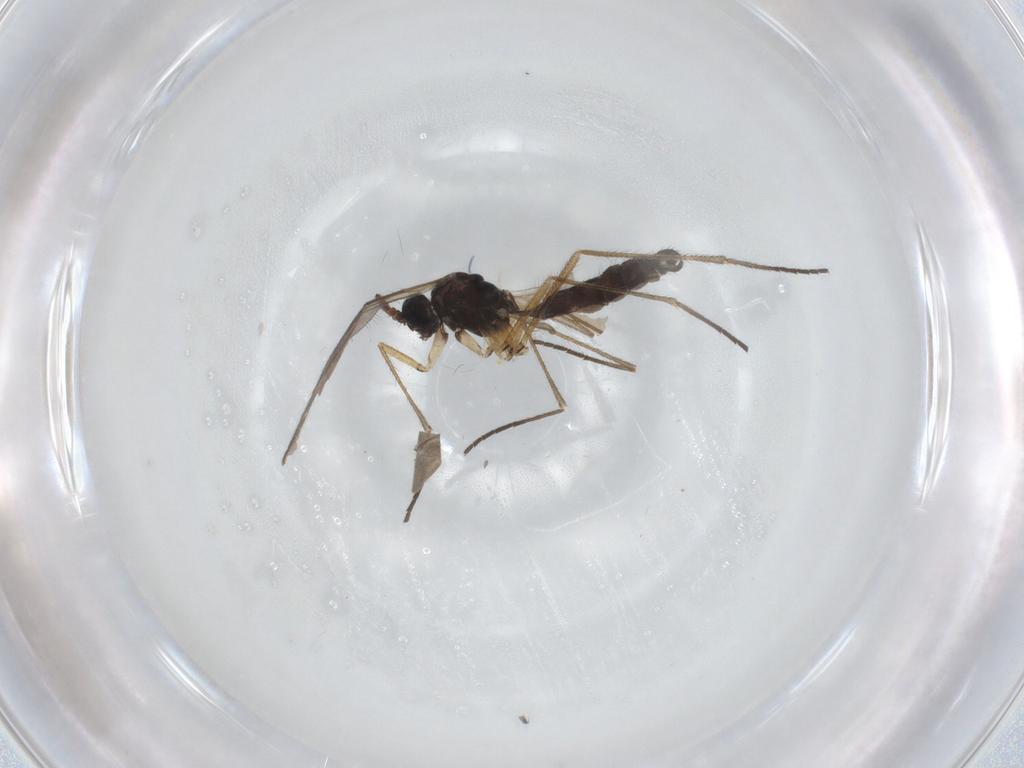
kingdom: Animalia
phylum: Arthropoda
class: Insecta
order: Diptera
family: Sciaridae
